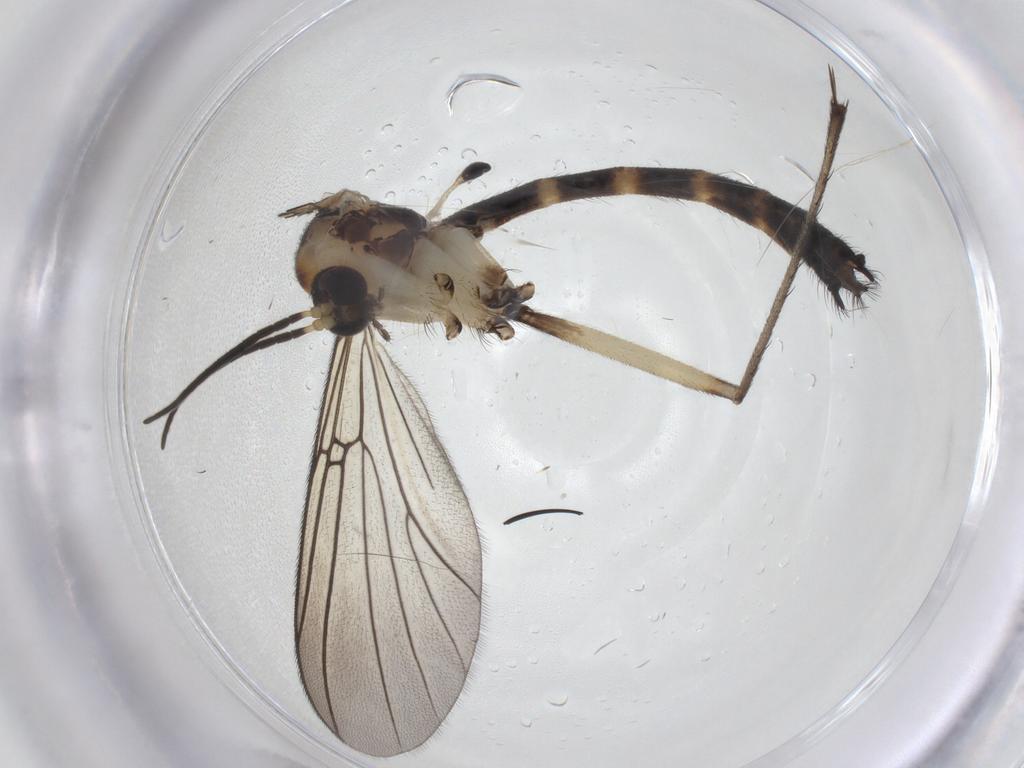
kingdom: Animalia
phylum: Arthropoda
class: Insecta
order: Diptera
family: Mycetophilidae
